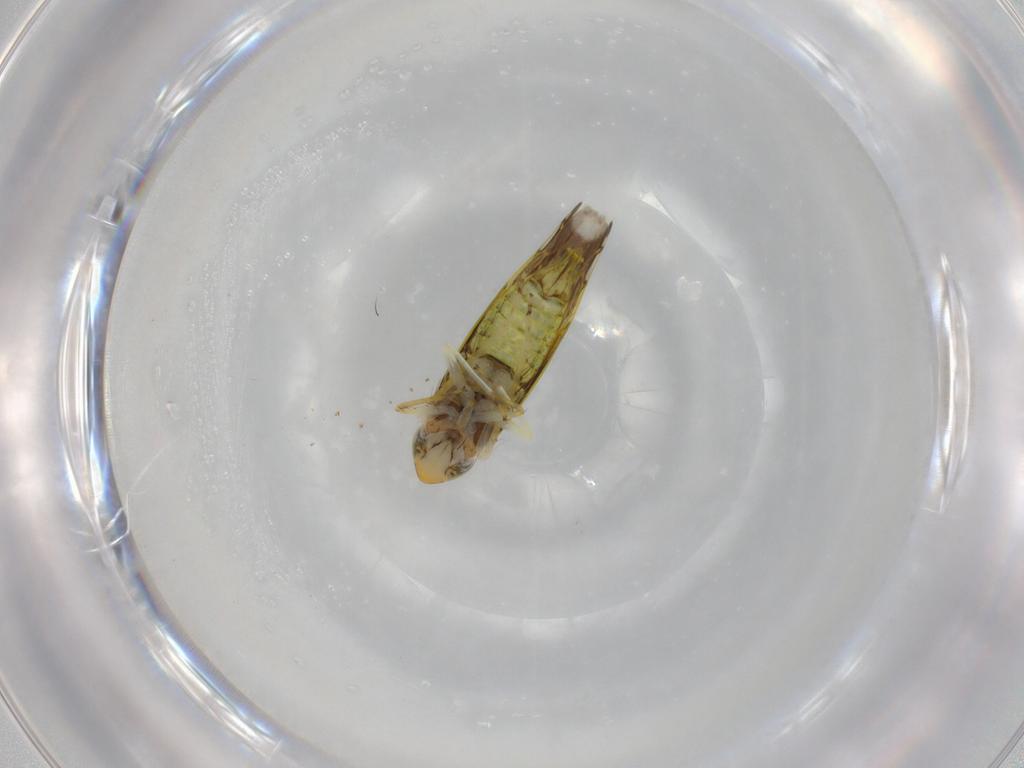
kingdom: Animalia
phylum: Arthropoda
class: Insecta
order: Hemiptera
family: Cicadellidae
